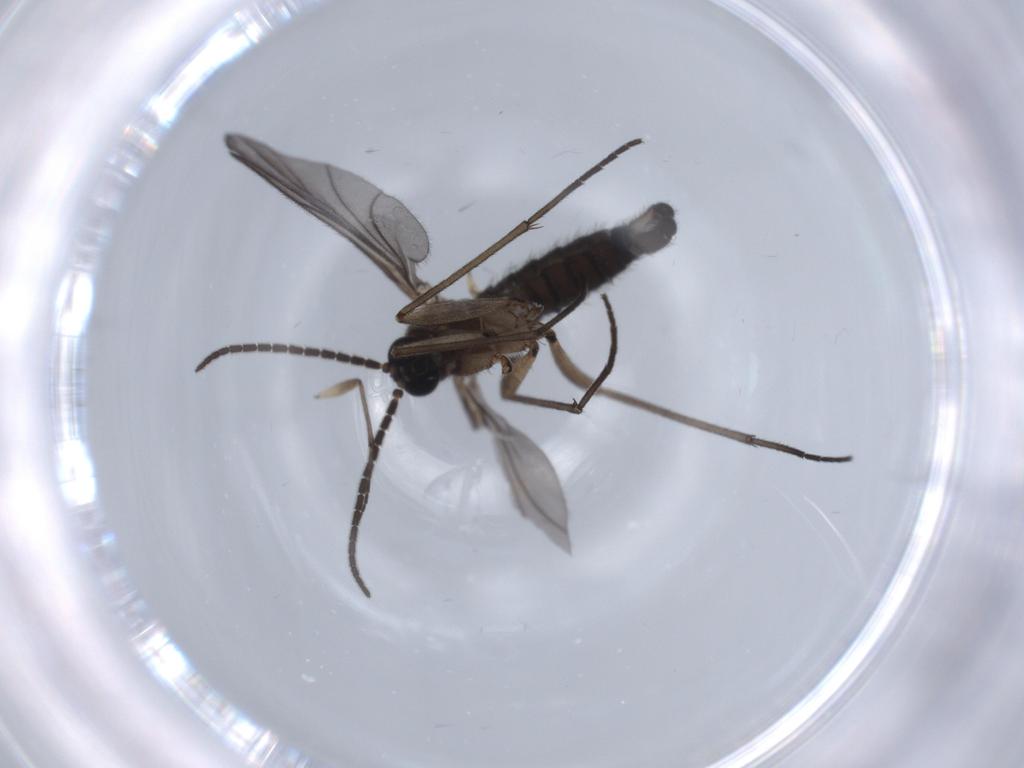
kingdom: Animalia
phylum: Arthropoda
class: Insecta
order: Diptera
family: Sciaridae
